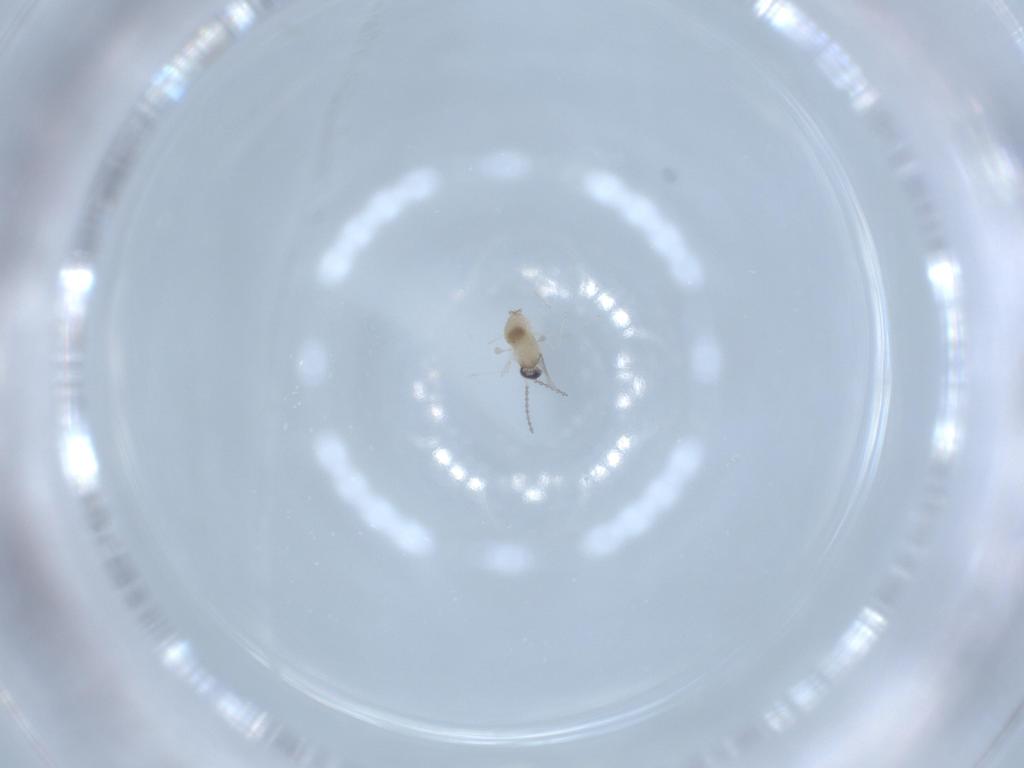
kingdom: Animalia
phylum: Arthropoda
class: Insecta
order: Diptera
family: Cecidomyiidae
